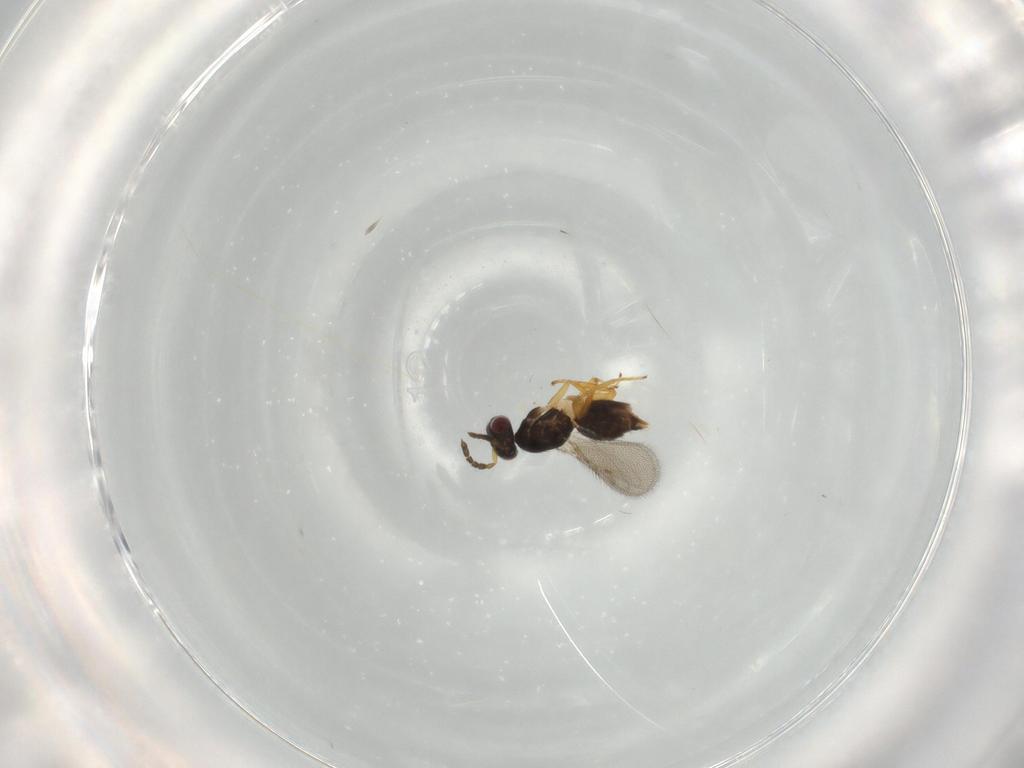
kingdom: Animalia
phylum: Arthropoda
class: Insecta
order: Hymenoptera
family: Eulophidae
